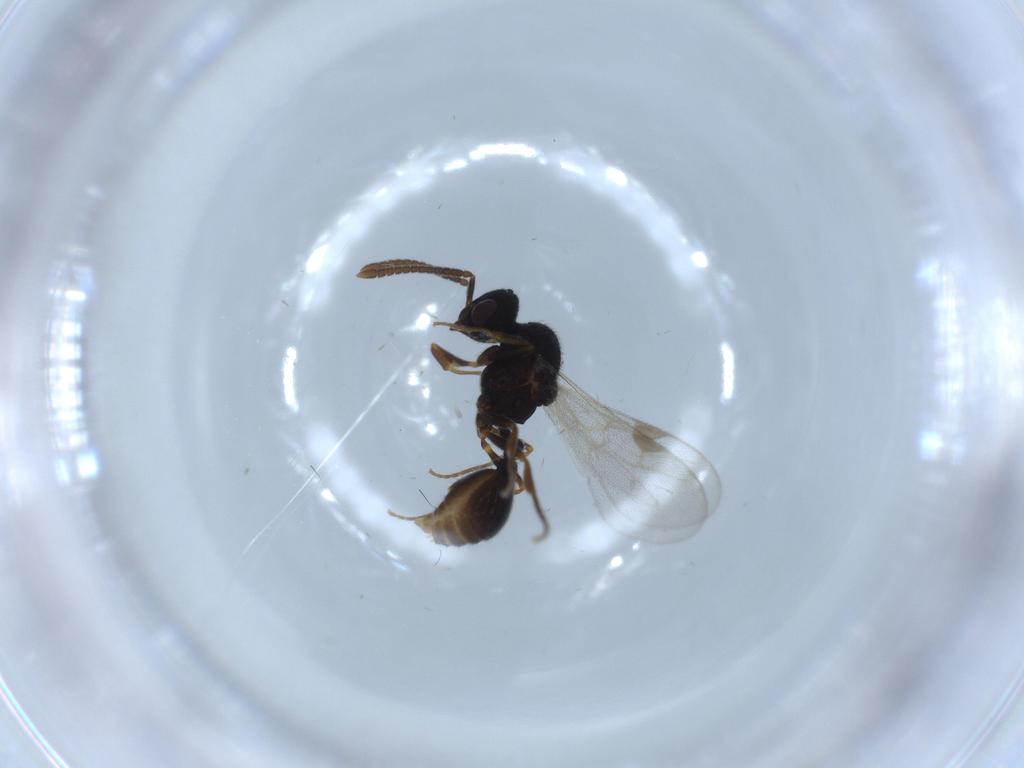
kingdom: Animalia
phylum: Arthropoda
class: Insecta
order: Hymenoptera
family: Formicidae
